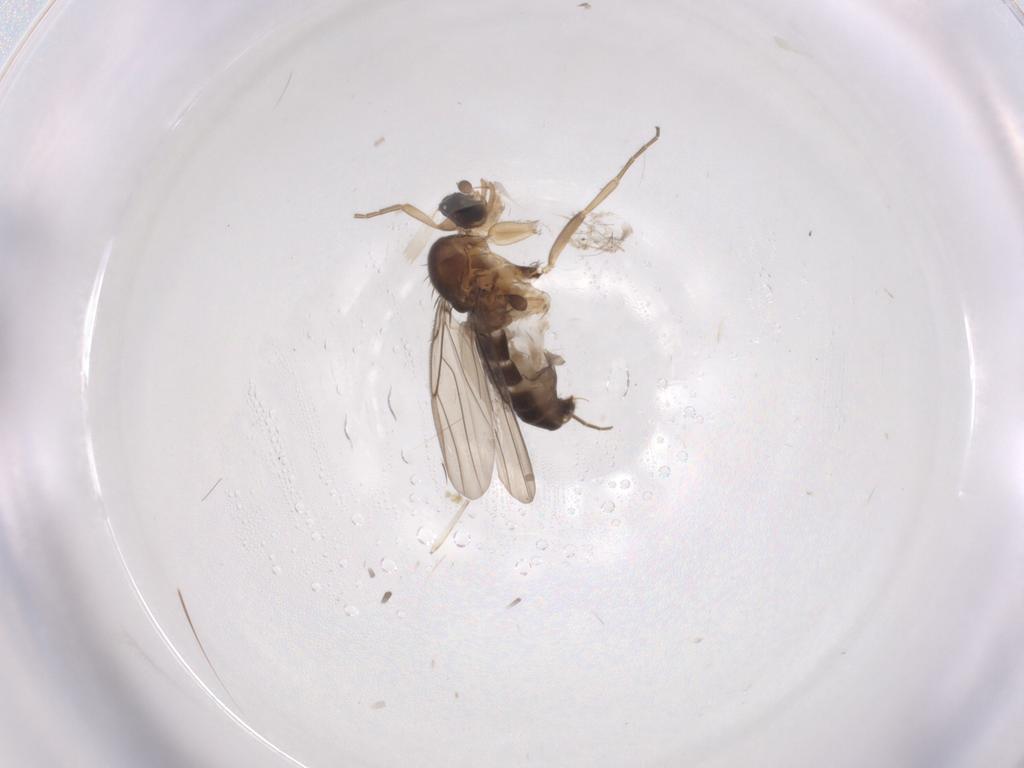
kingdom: Animalia
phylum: Arthropoda
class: Insecta
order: Diptera
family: Phoridae
